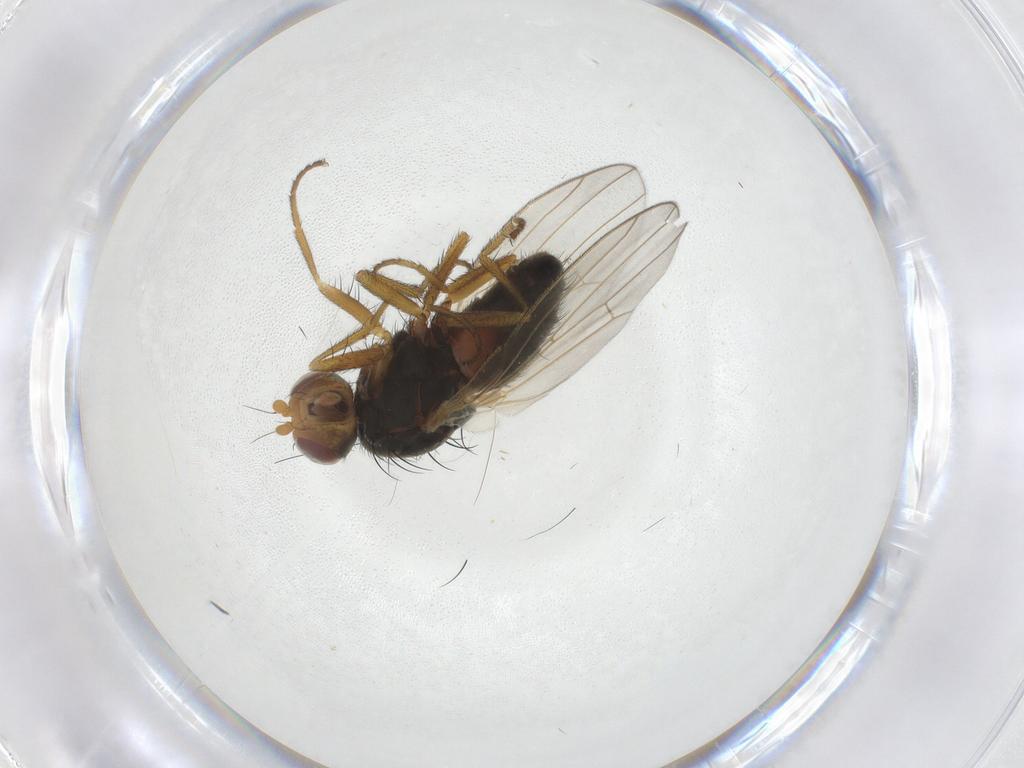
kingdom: Animalia
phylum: Arthropoda
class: Insecta
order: Diptera
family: Heleomyzidae
